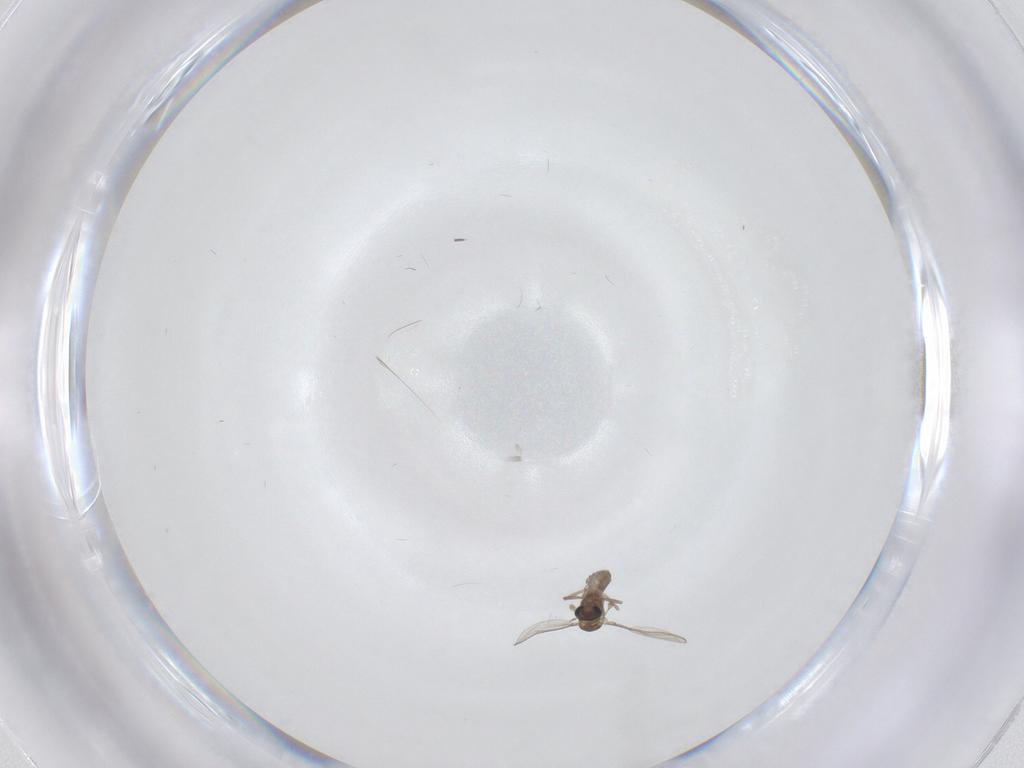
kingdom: Animalia
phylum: Arthropoda
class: Insecta
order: Diptera
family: Chironomidae
